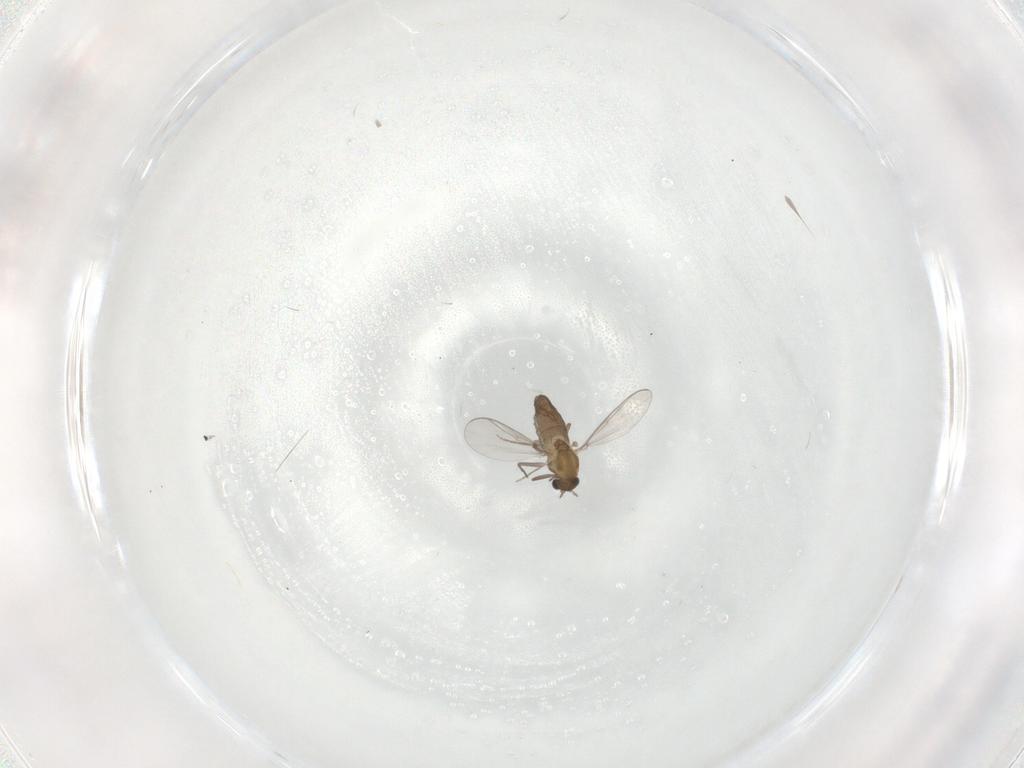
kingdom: Animalia
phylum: Arthropoda
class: Insecta
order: Diptera
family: Chironomidae
